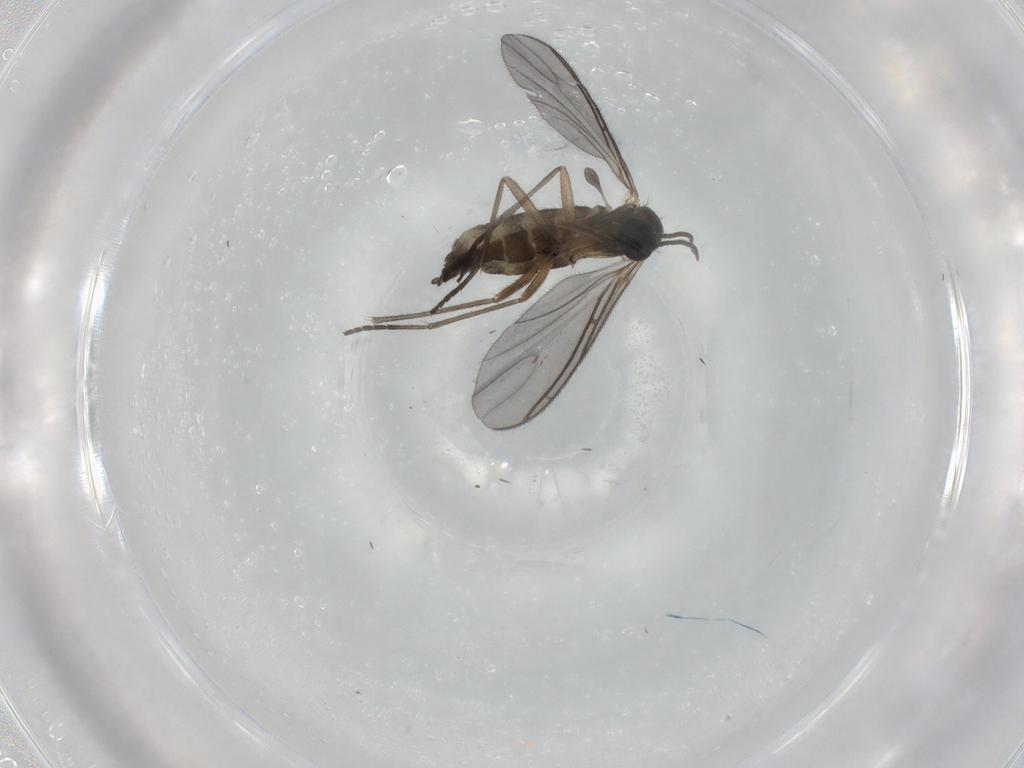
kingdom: Animalia
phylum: Arthropoda
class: Insecta
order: Diptera
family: Sciaridae
